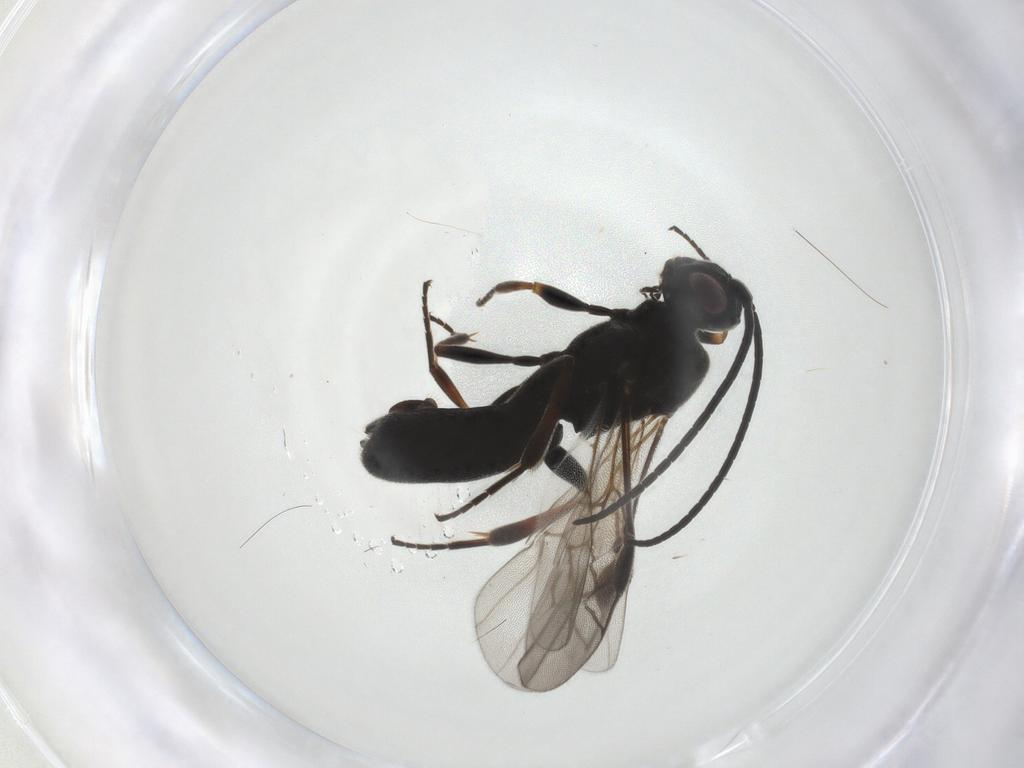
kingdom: Animalia
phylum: Arthropoda
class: Insecta
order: Hymenoptera
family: Braconidae
